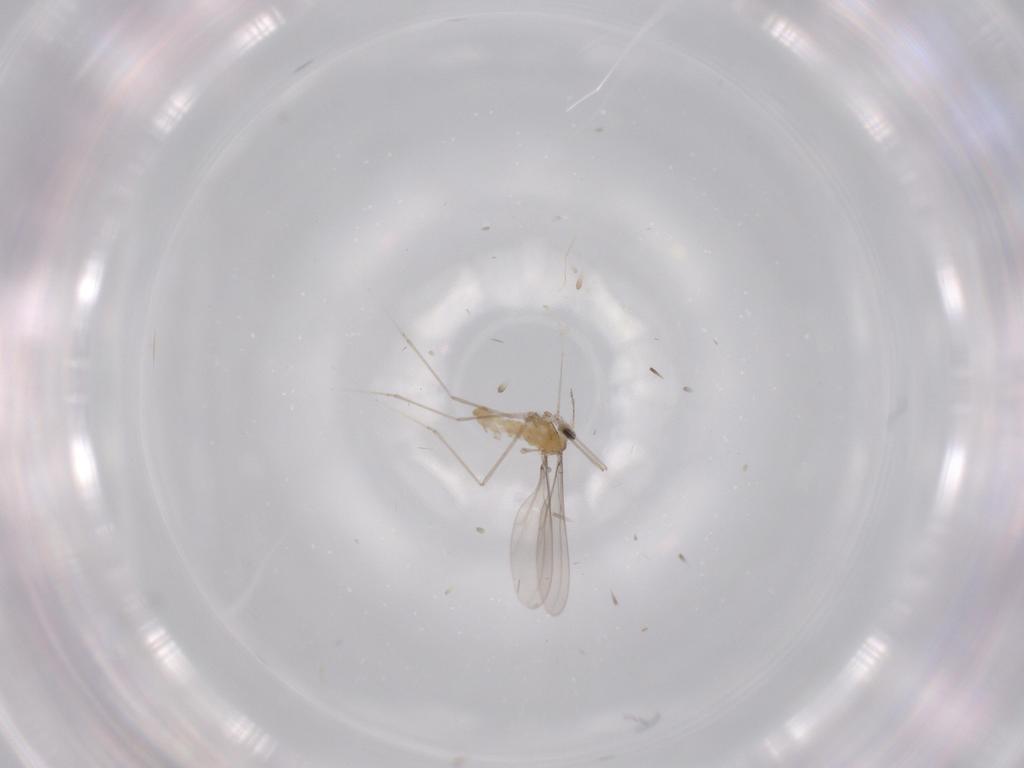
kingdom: Animalia
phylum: Arthropoda
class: Insecta
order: Diptera
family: Cecidomyiidae
